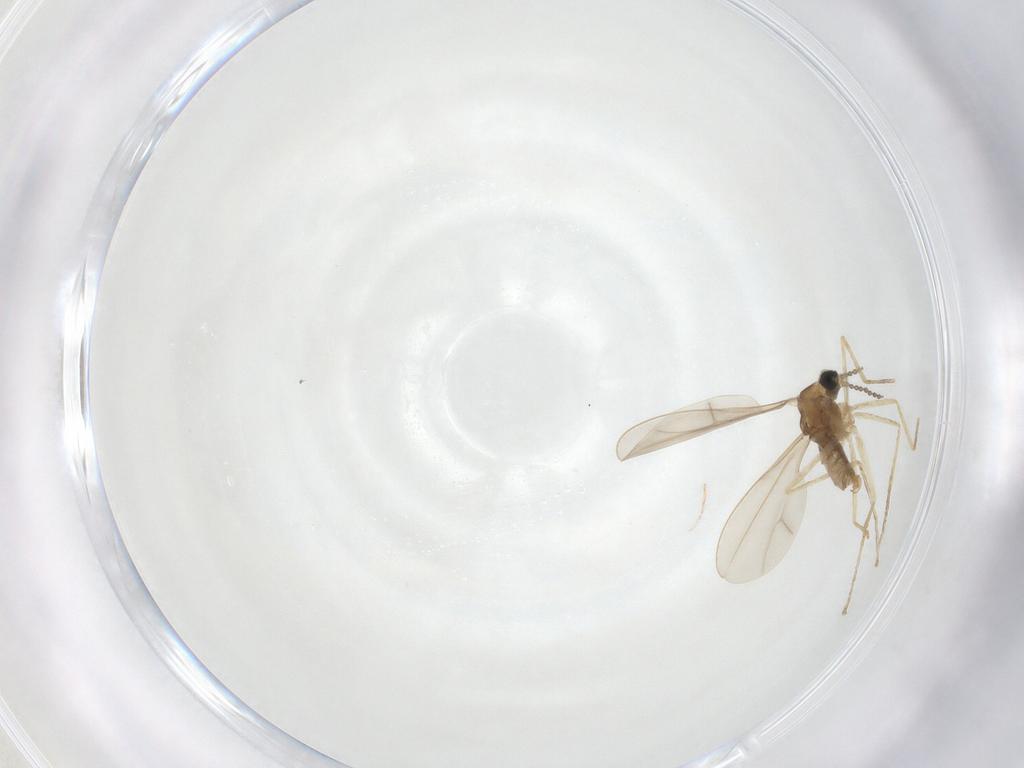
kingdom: Animalia
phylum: Arthropoda
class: Insecta
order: Diptera
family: Cecidomyiidae
